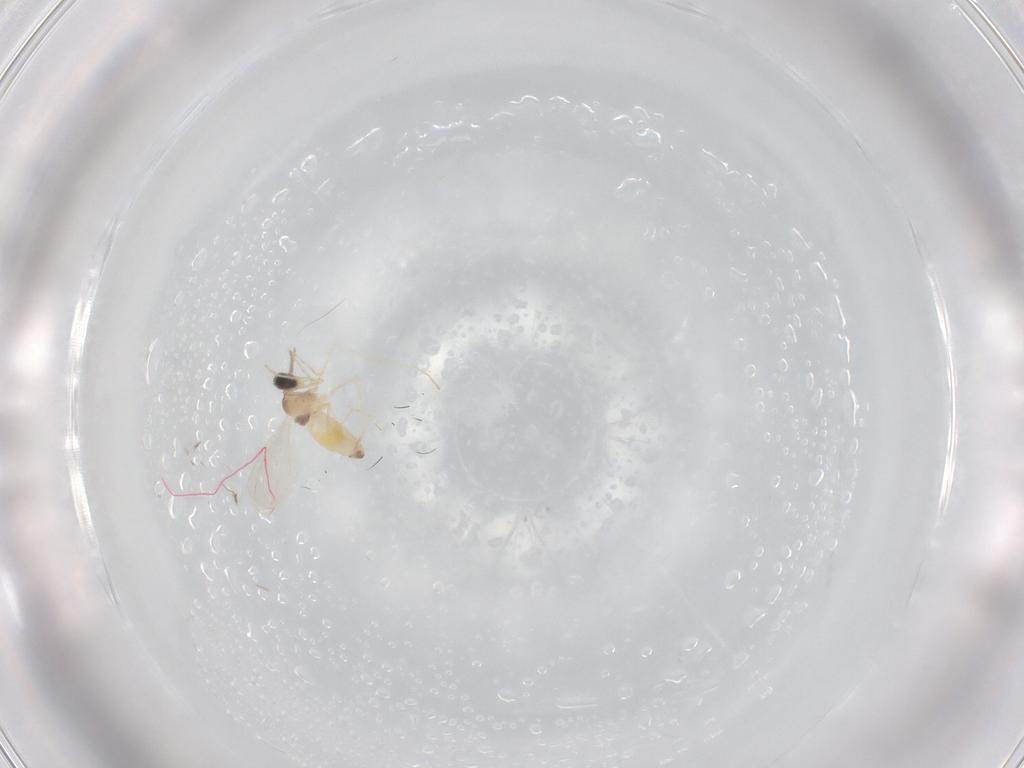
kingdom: Animalia
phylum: Arthropoda
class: Insecta
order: Diptera
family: Cecidomyiidae
